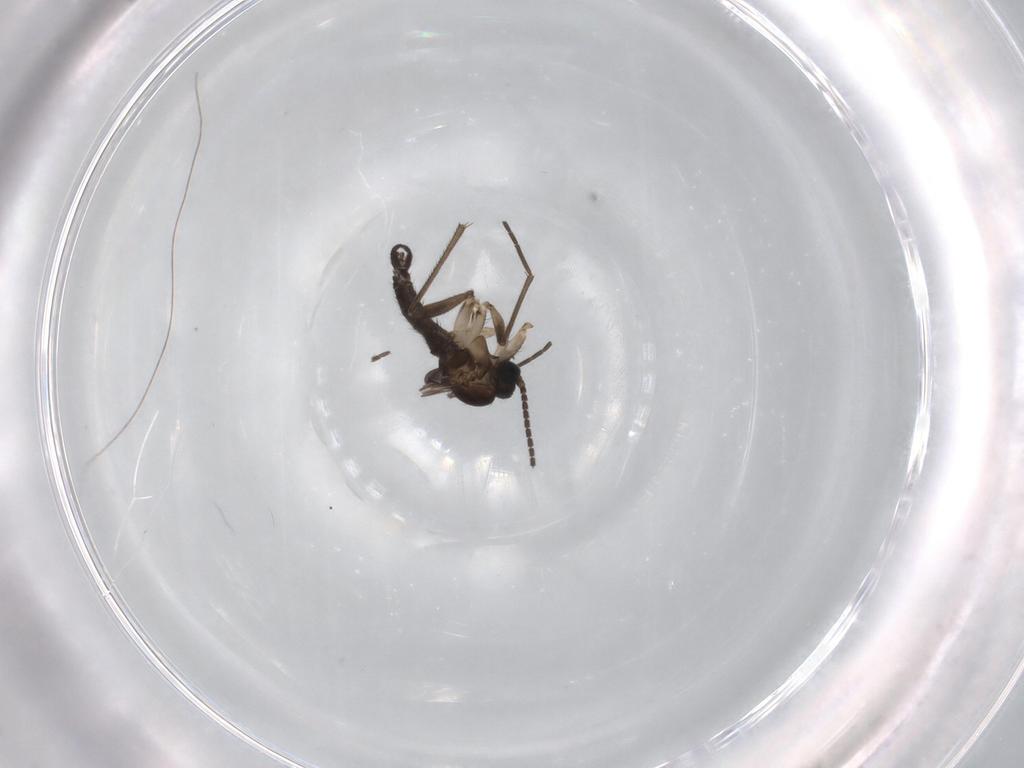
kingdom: Animalia
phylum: Arthropoda
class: Insecta
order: Diptera
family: Sciaridae
